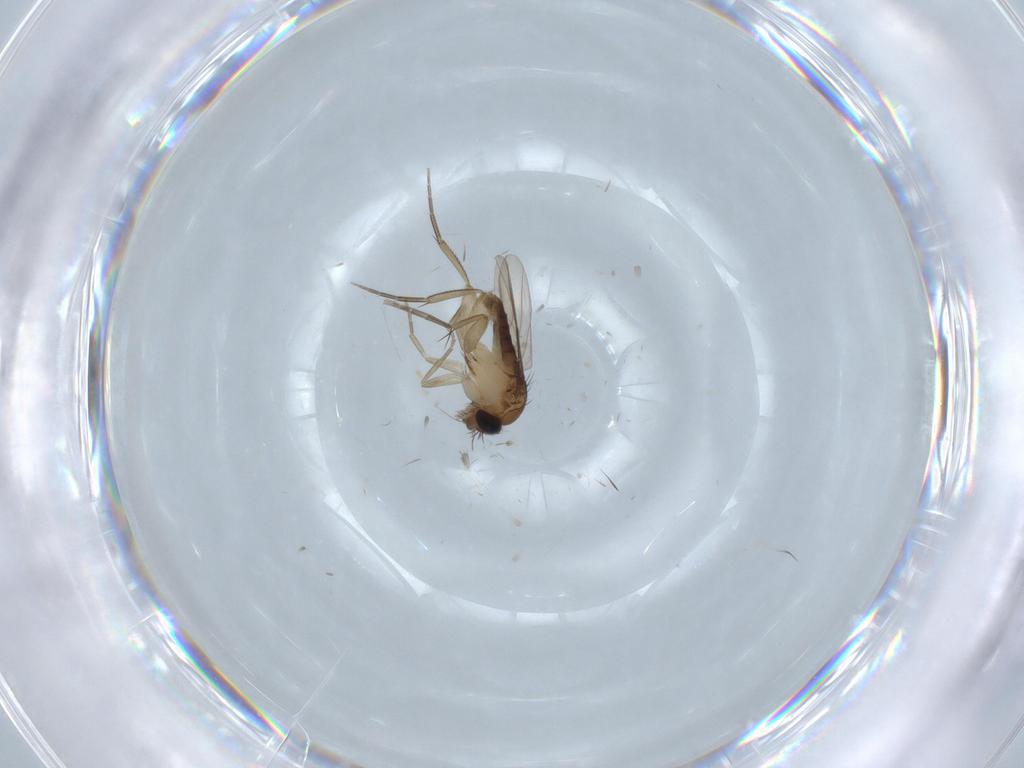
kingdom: Animalia
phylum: Arthropoda
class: Insecta
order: Diptera
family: Phoridae
